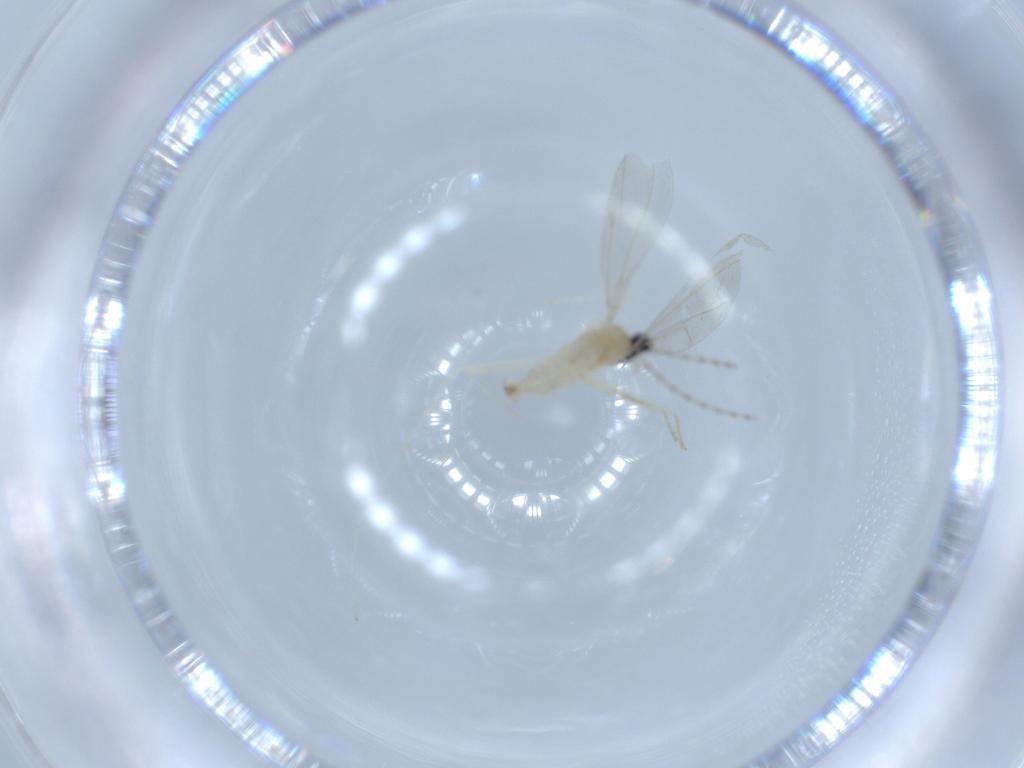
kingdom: Animalia
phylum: Arthropoda
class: Insecta
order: Diptera
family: Cecidomyiidae
